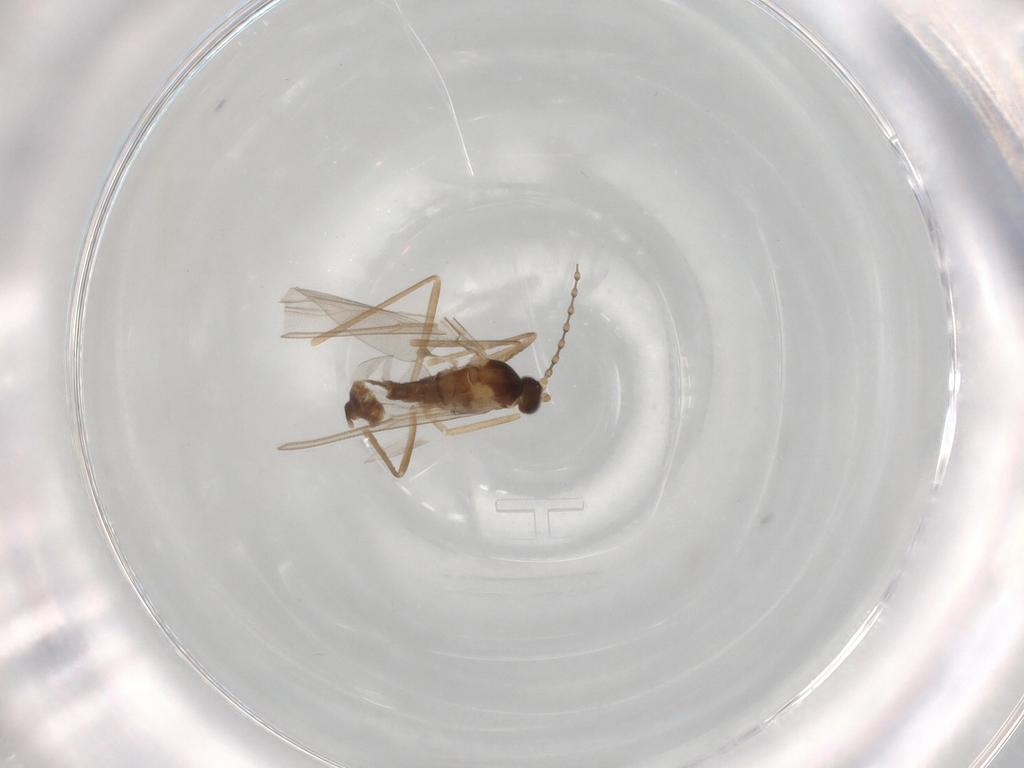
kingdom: Animalia
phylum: Arthropoda
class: Insecta
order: Diptera
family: Cecidomyiidae
